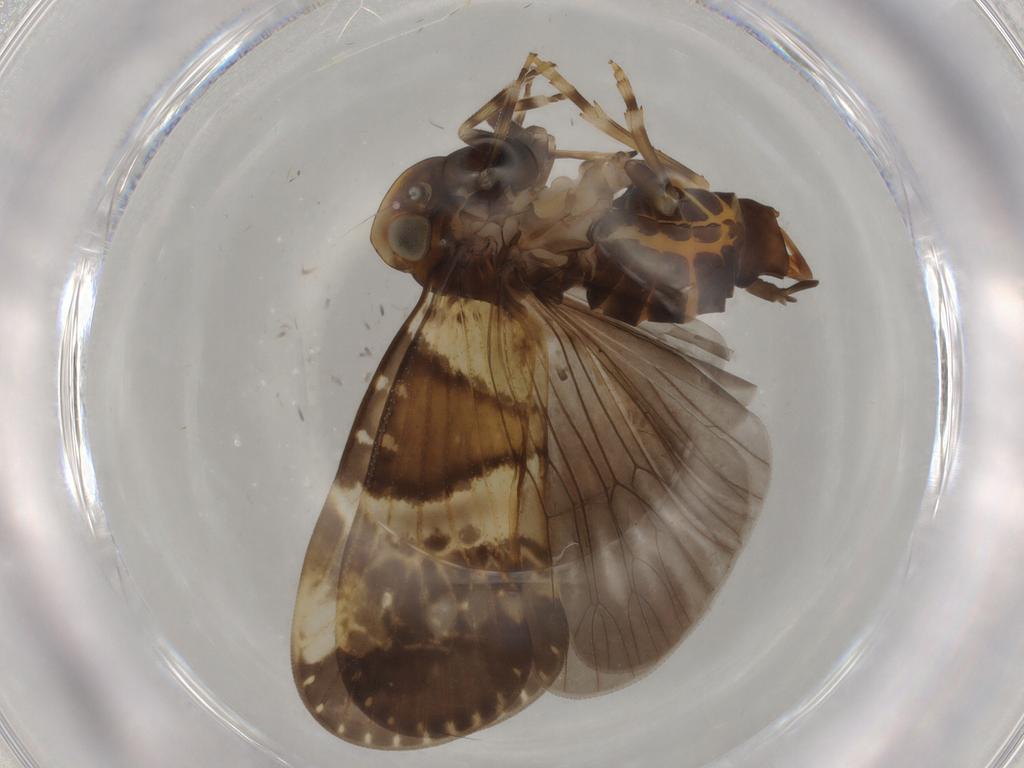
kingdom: Animalia
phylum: Arthropoda
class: Insecta
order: Hemiptera
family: Cixiidae
